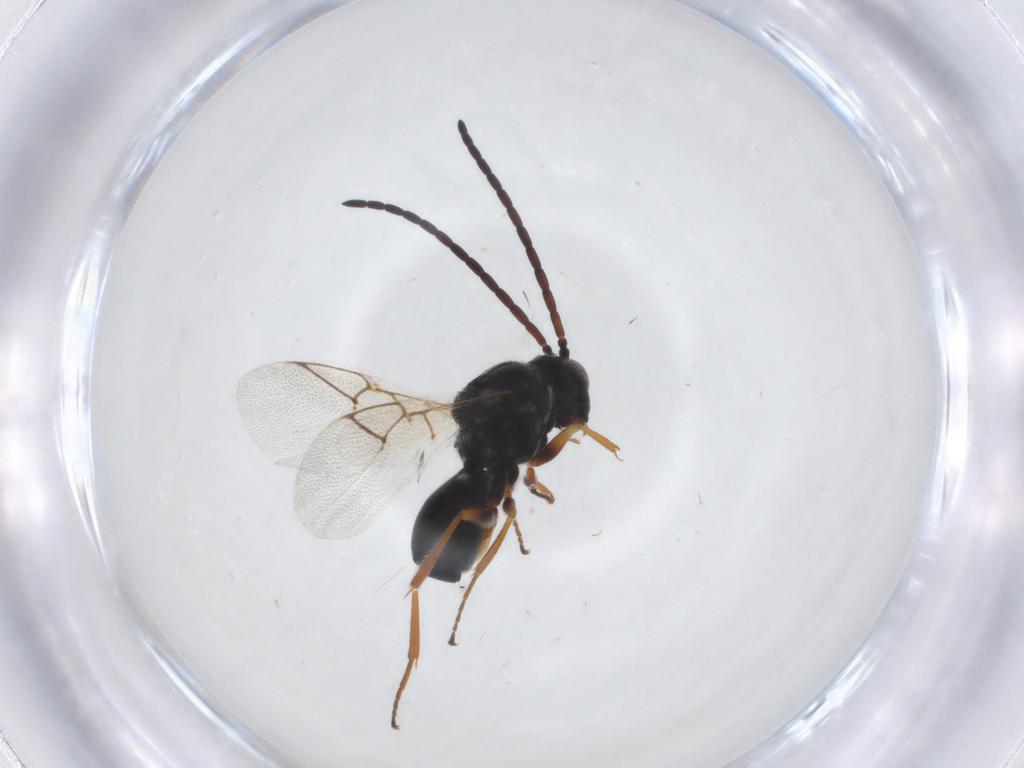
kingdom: Animalia
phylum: Arthropoda
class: Insecta
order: Hymenoptera
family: Figitidae
